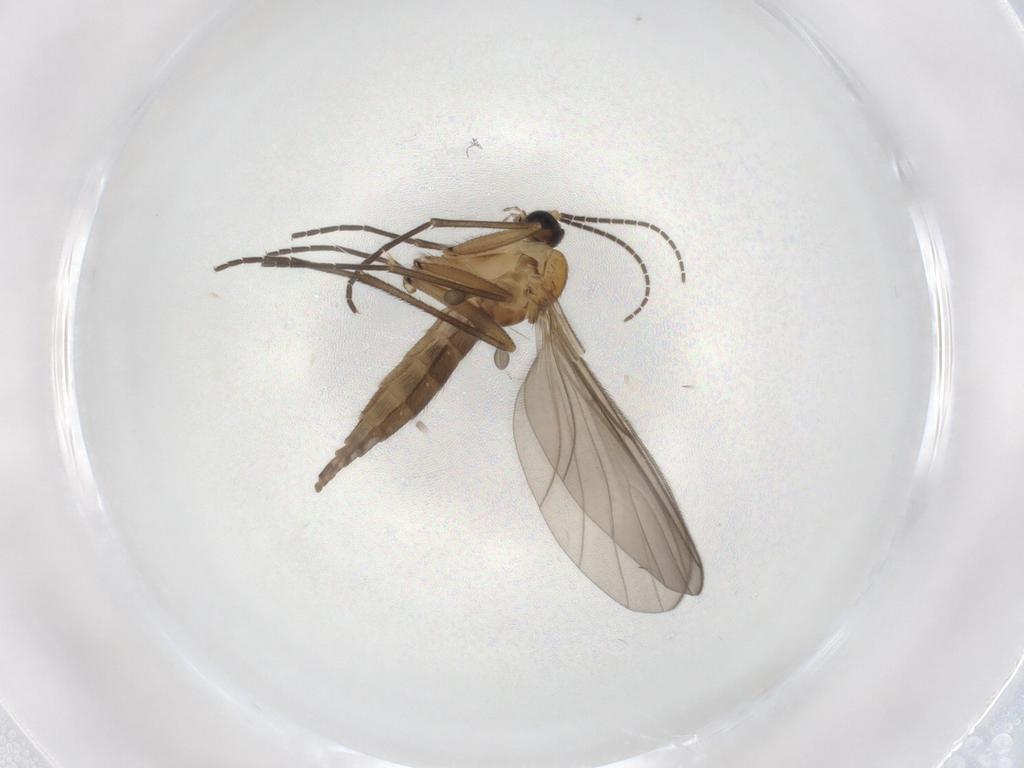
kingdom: Animalia
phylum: Arthropoda
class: Insecta
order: Diptera
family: Sciaridae
